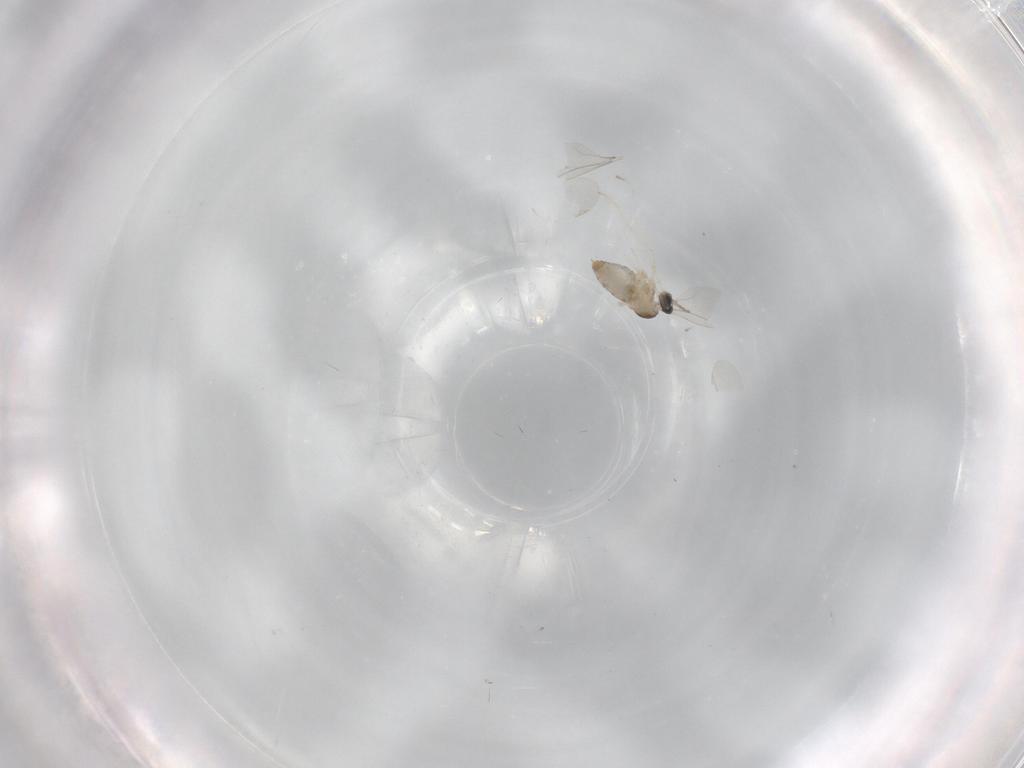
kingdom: Animalia
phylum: Arthropoda
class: Insecta
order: Diptera
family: Cecidomyiidae
